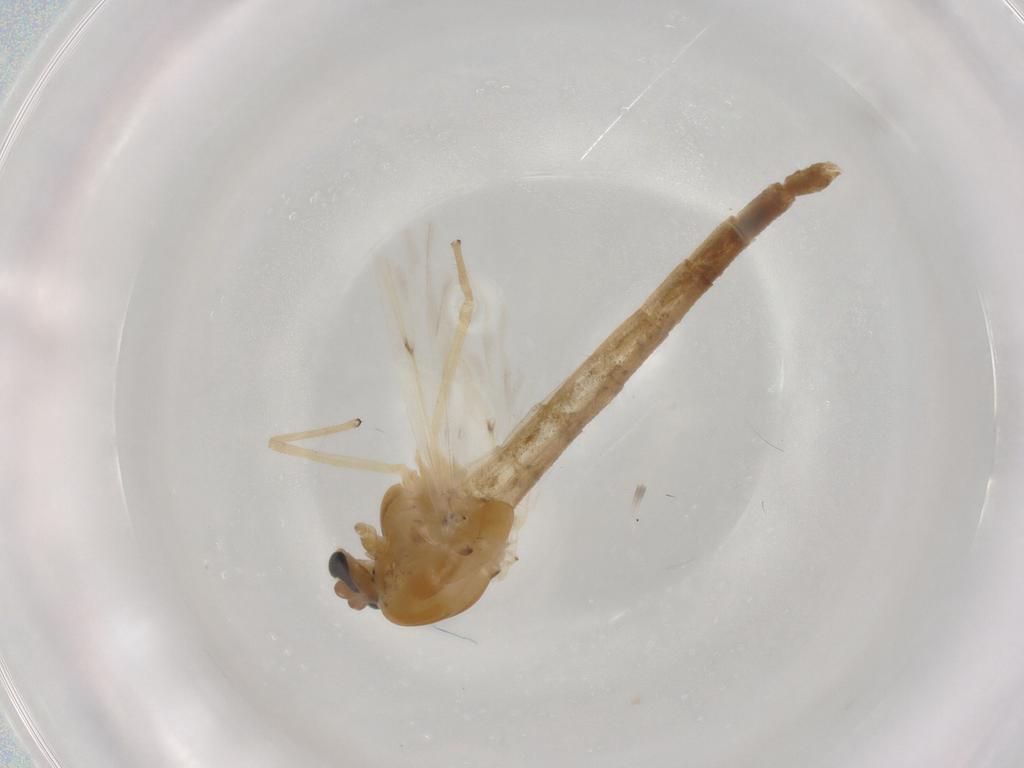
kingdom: Animalia
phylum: Arthropoda
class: Insecta
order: Diptera
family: Chironomidae
